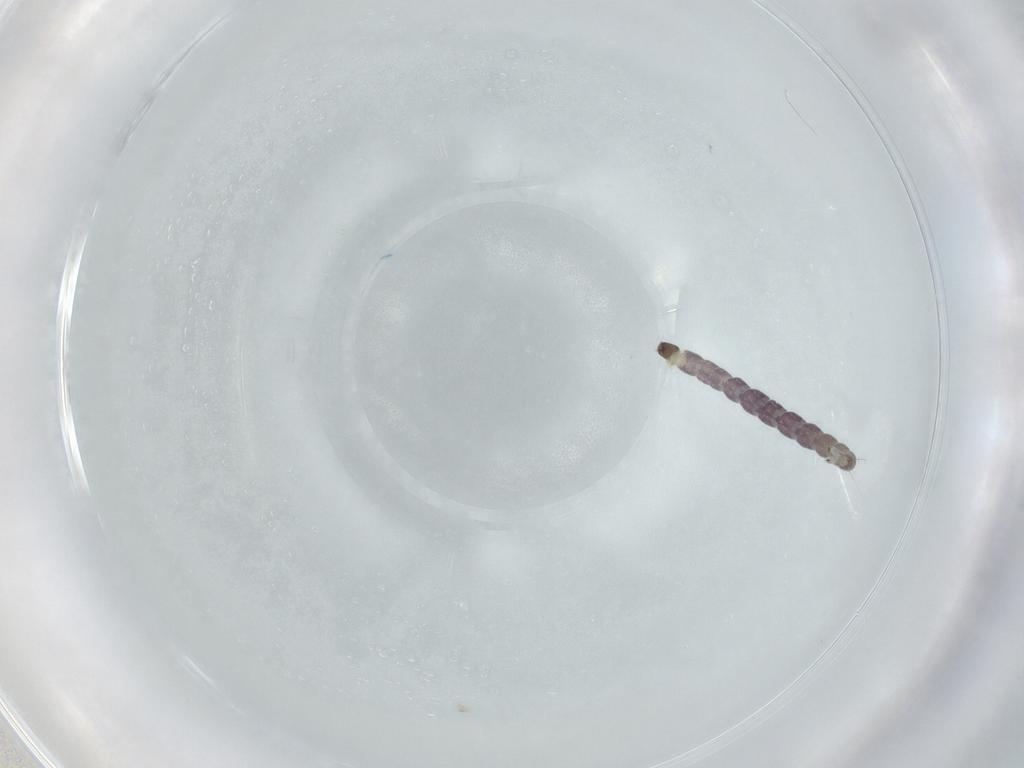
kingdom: Animalia
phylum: Arthropoda
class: Insecta
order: Diptera
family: Chironomidae
